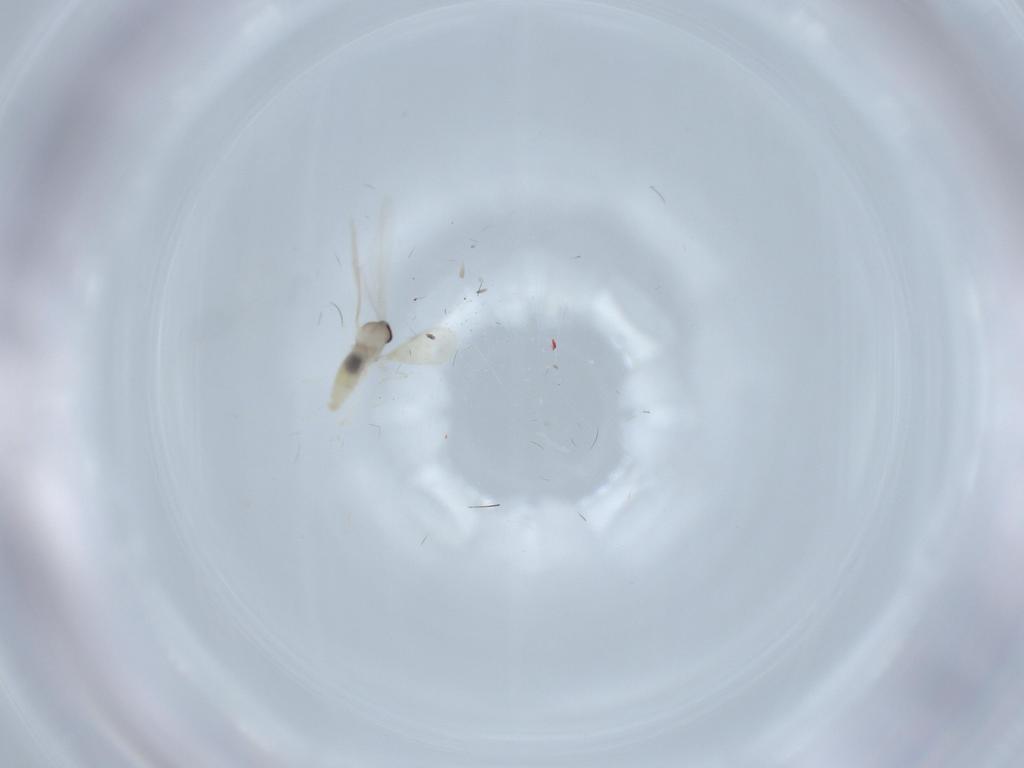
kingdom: Animalia
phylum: Arthropoda
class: Insecta
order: Diptera
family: Cecidomyiidae
